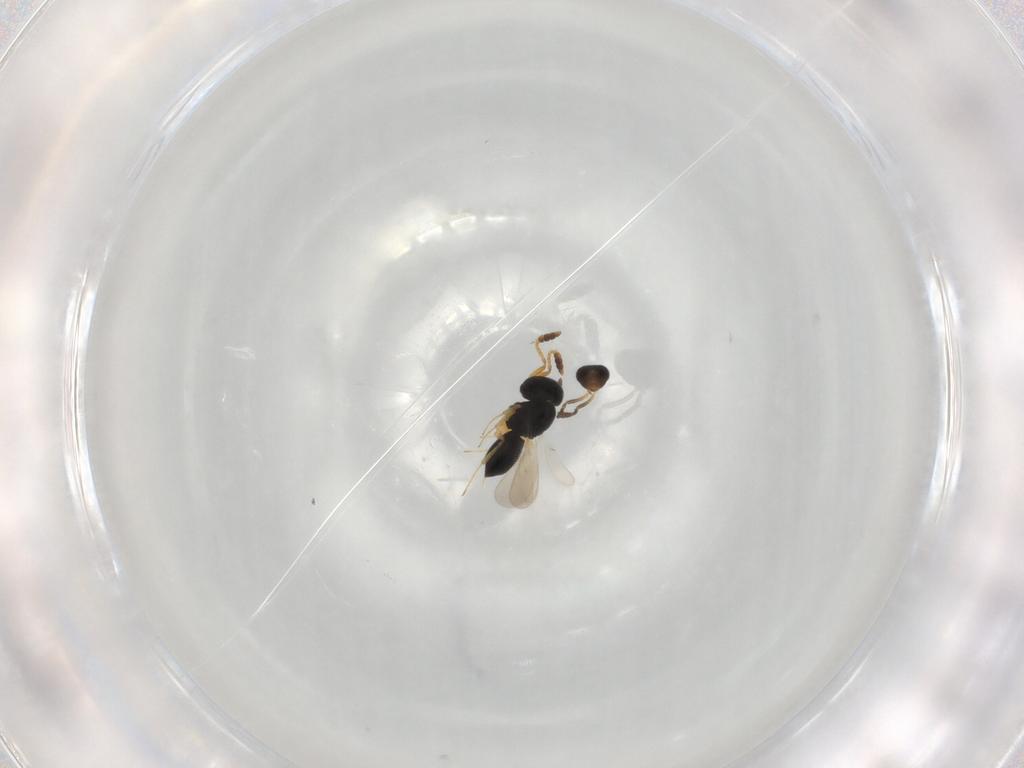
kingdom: Animalia
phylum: Arthropoda
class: Insecta
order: Hymenoptera
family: Scelionidae
